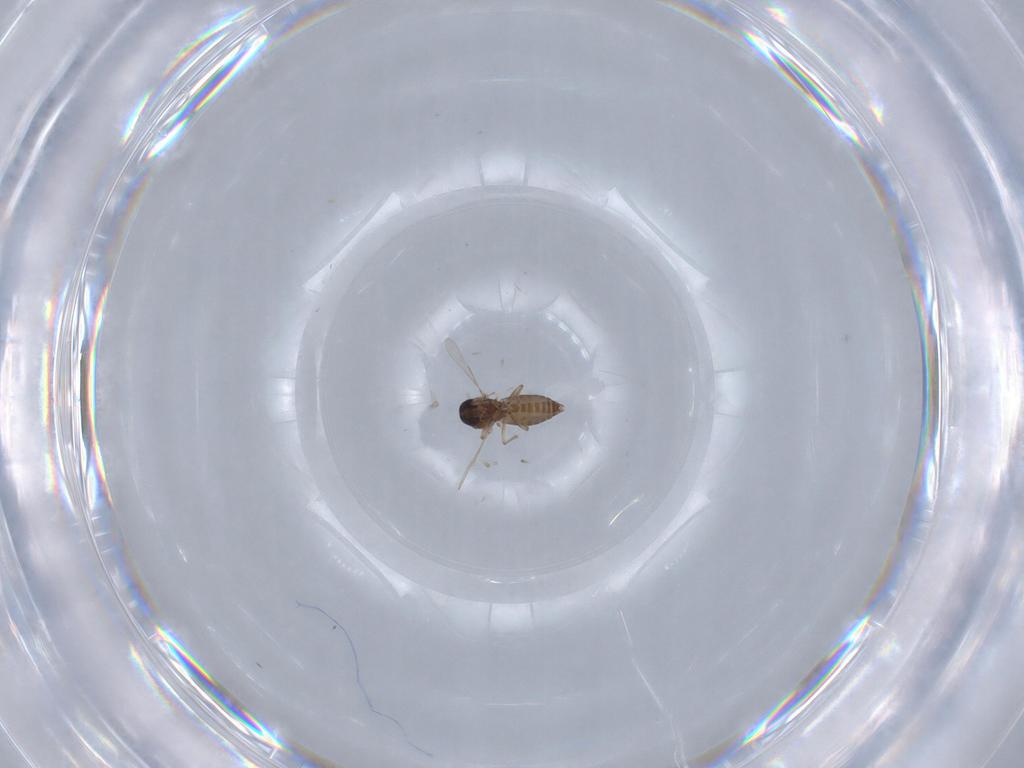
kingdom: Animalia
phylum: Arthropoda
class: Insecta
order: Diptera
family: Ceratopogonidae
